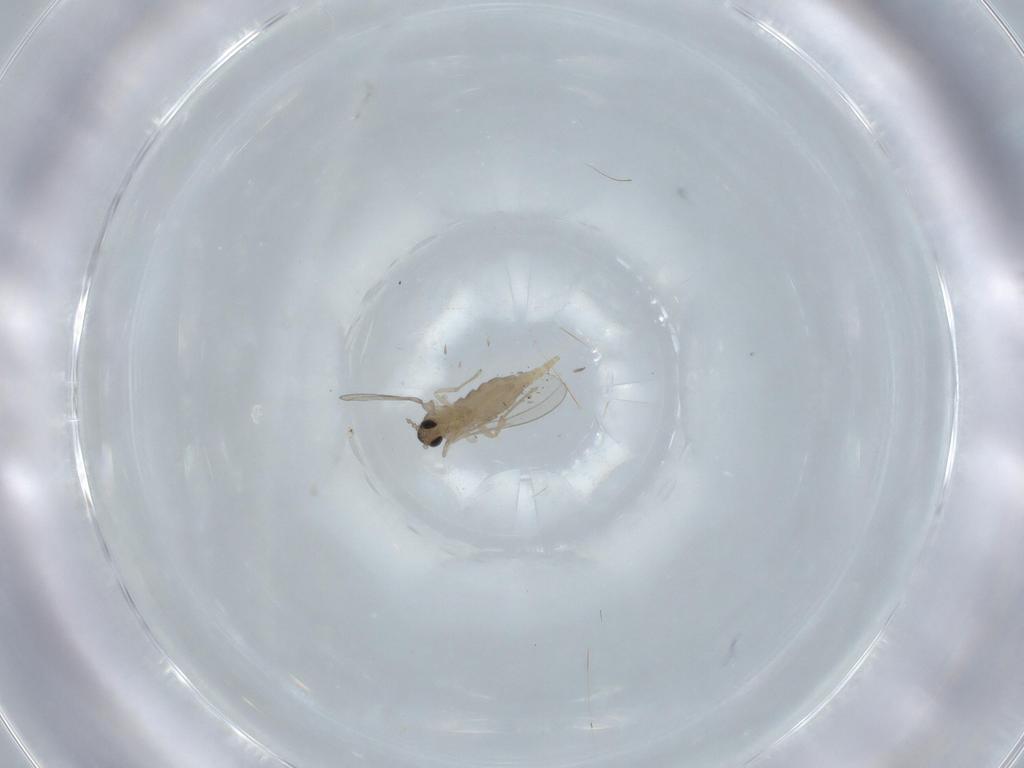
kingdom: Animalia
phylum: Arthropoda
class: Insecta
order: Diptera
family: Cecidomyiidae
